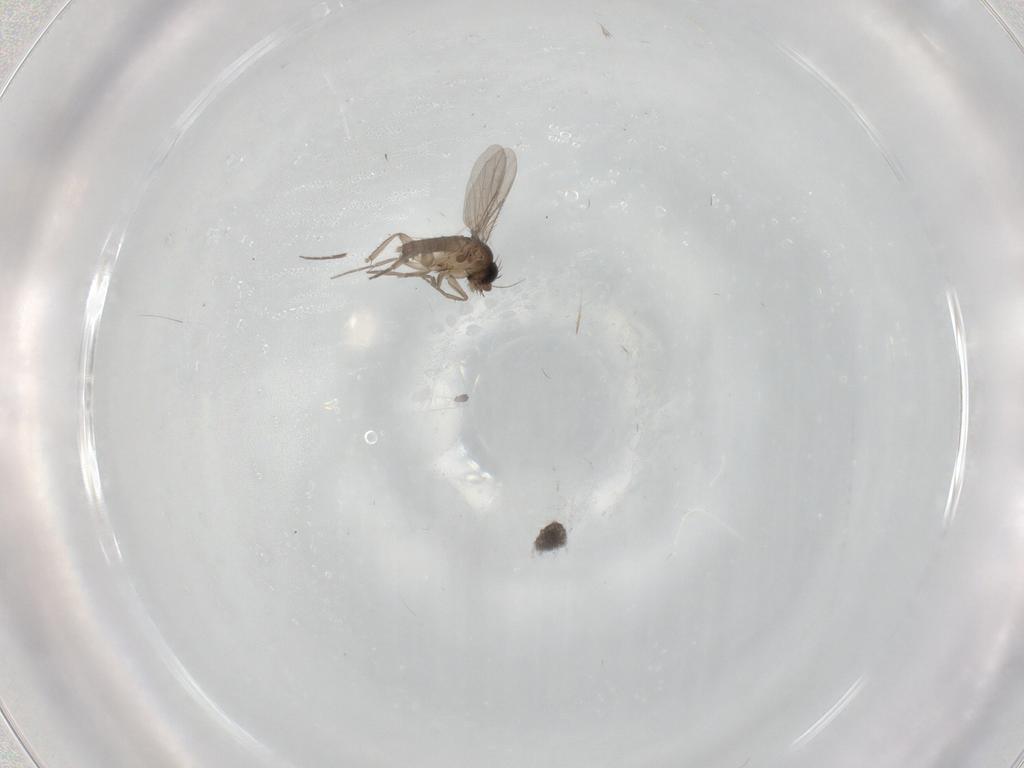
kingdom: Animalia
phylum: Arthropoda
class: Insecta
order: Diptera
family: Phoridae
